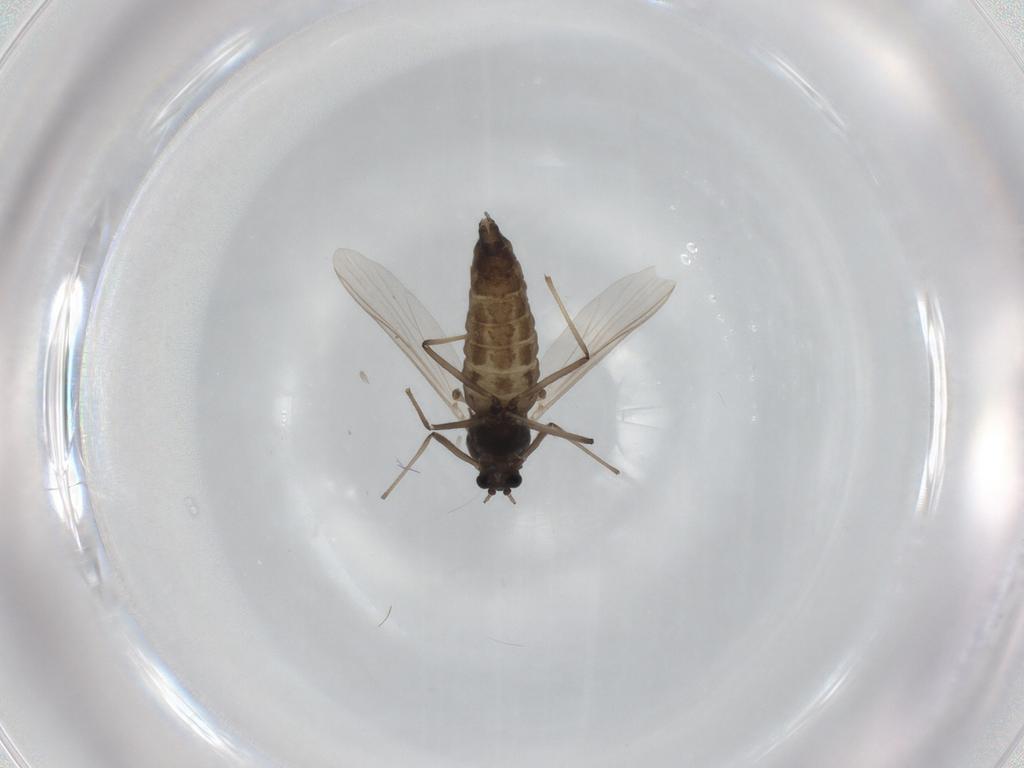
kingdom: Animalia
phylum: Arthropoda
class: Insecta
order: Diptera
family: Chironomidae
